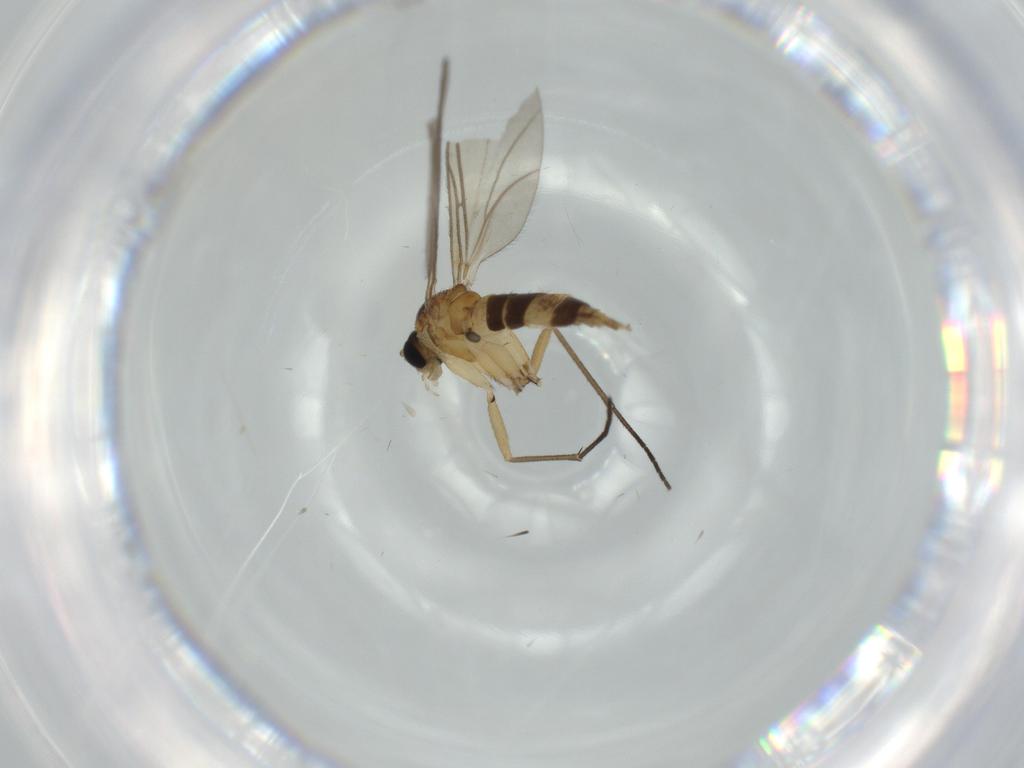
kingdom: Animalia
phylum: Arthropoda
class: Insecta
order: Diptera
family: Sciaridae
